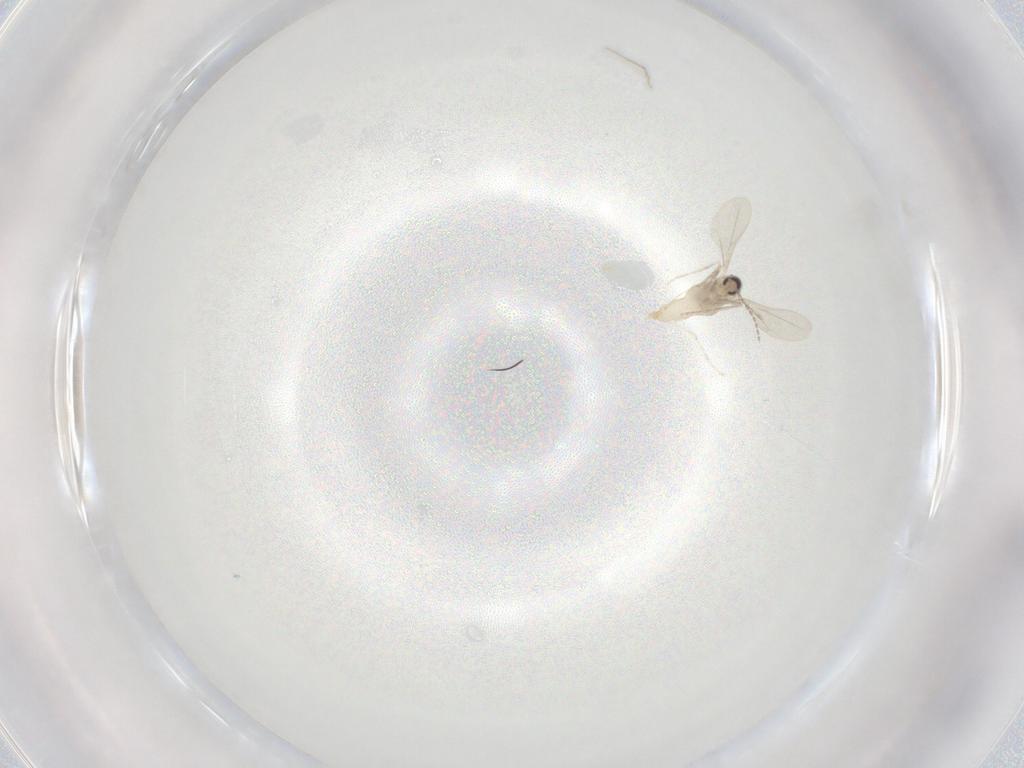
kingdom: Animalia
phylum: Arthropoda
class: Insecta
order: Diptera
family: Cecidomyiidae
